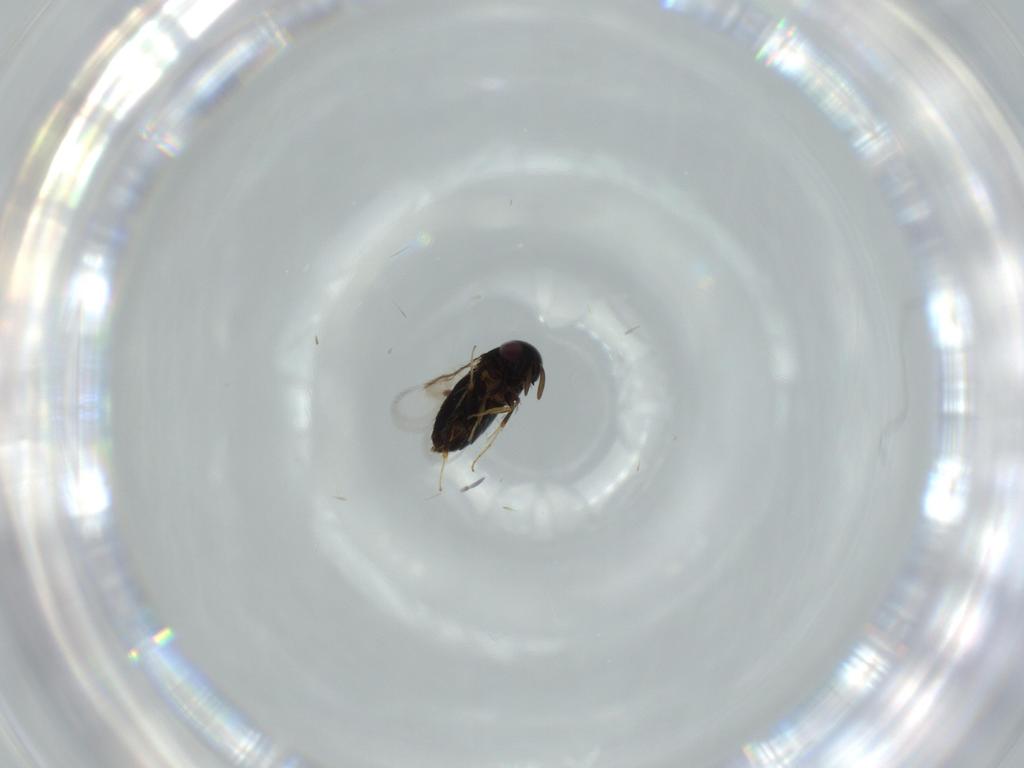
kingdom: Animalia
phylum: Arthropoda
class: Insecta
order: Hymenoptera
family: Signiphoridae
